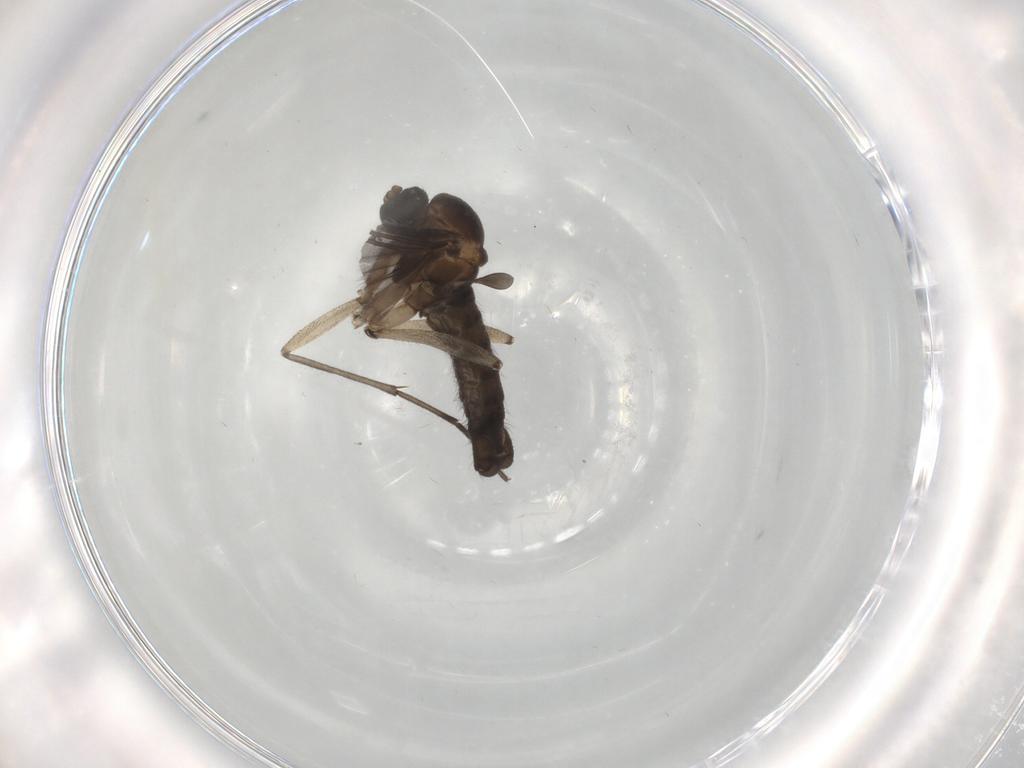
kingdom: Animalia
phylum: Arthropoda
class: Insecta
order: Diptera
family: Stratiomyidae
